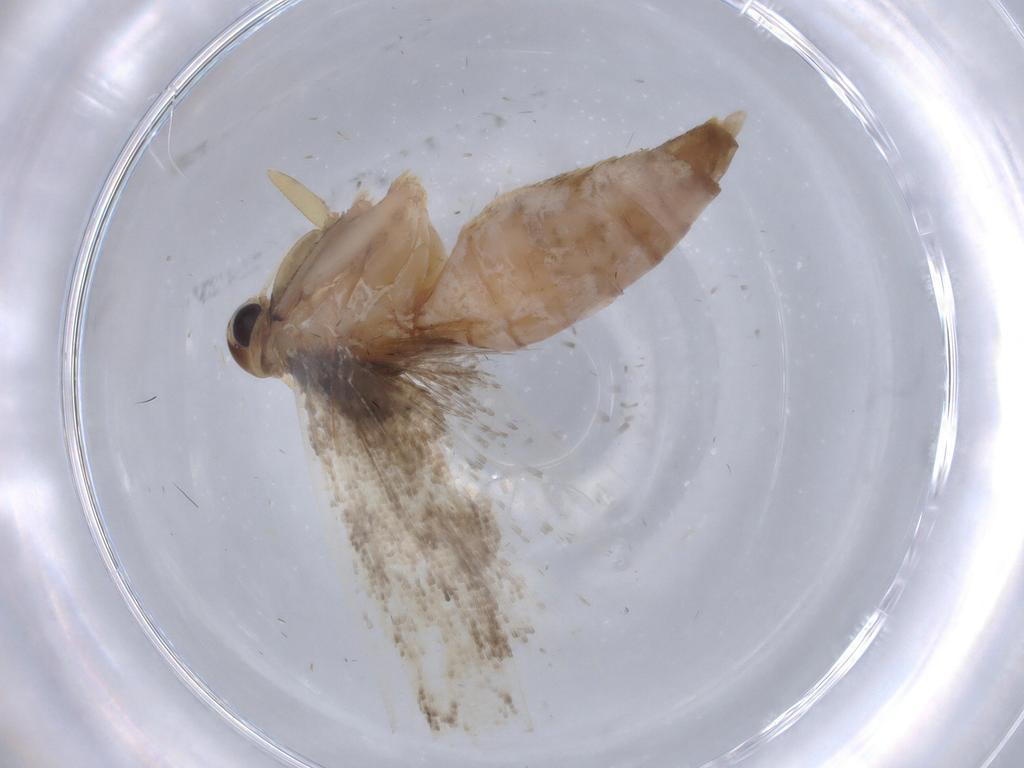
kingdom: Animalia
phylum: Arthropoda
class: Insecta
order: Lepidoptera
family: Gelechiidae
